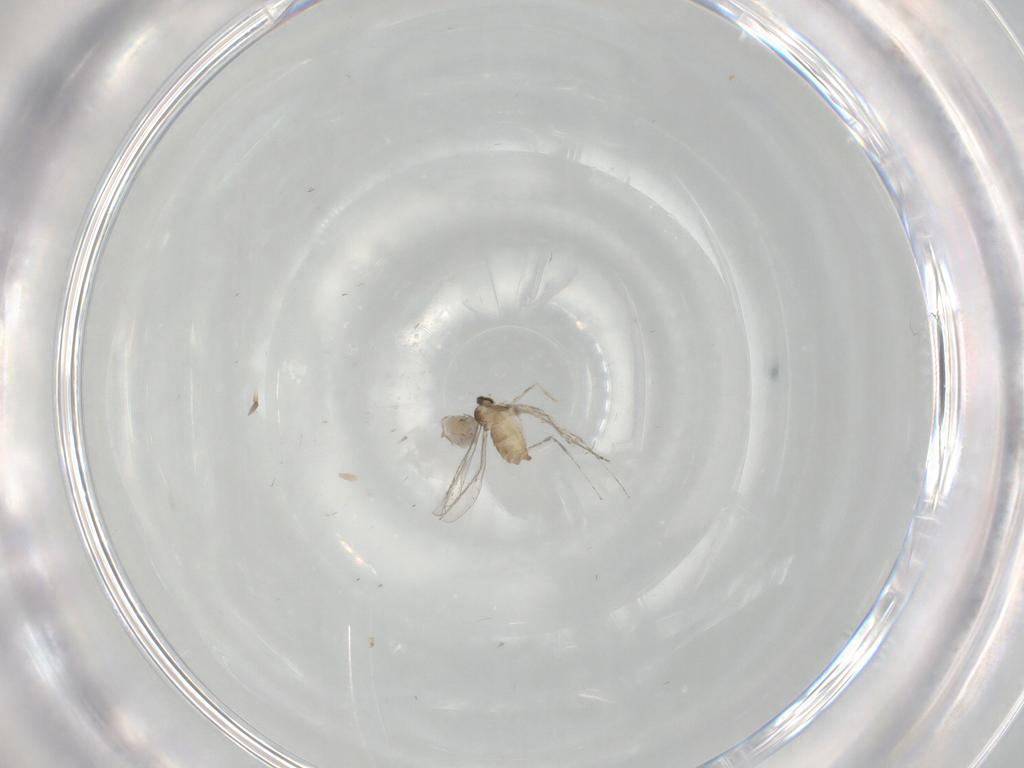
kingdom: Animalia
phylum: Arthropoda
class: Insecta
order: Diptera
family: Cecidomyiidae
